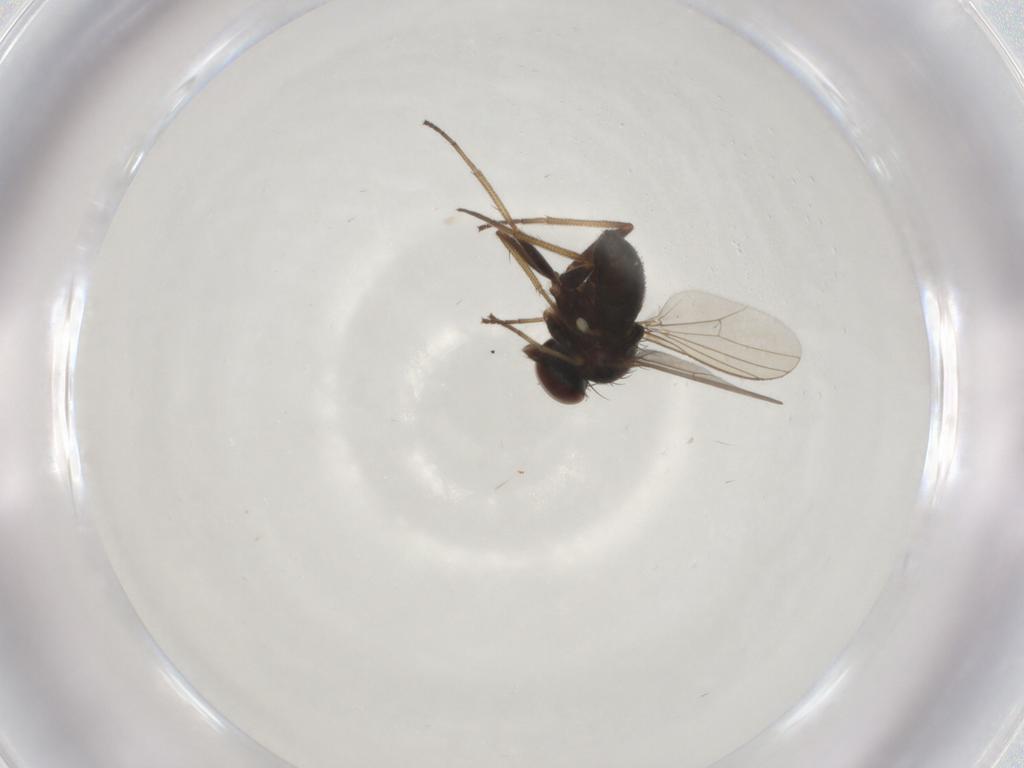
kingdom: Animalia
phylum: Arthropoda
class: Insecta
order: Diptera
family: Dolichopodidae
